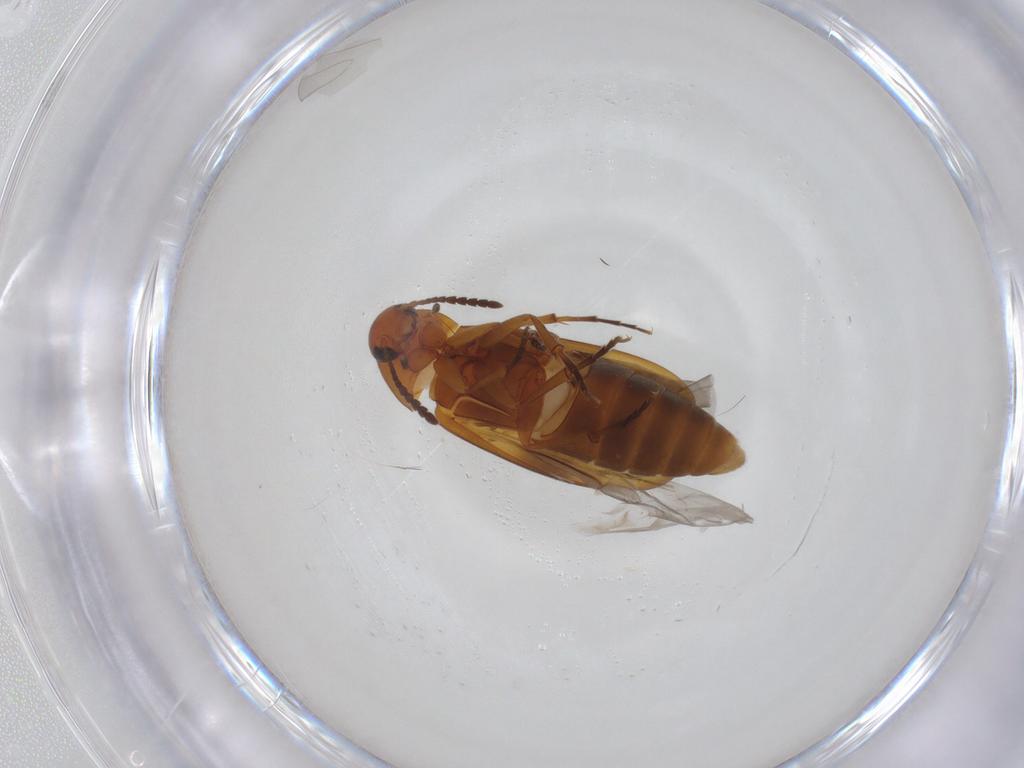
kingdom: Animalia
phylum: Arthropoda
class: Insecta
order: Coleoptera
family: Scraptiidae
